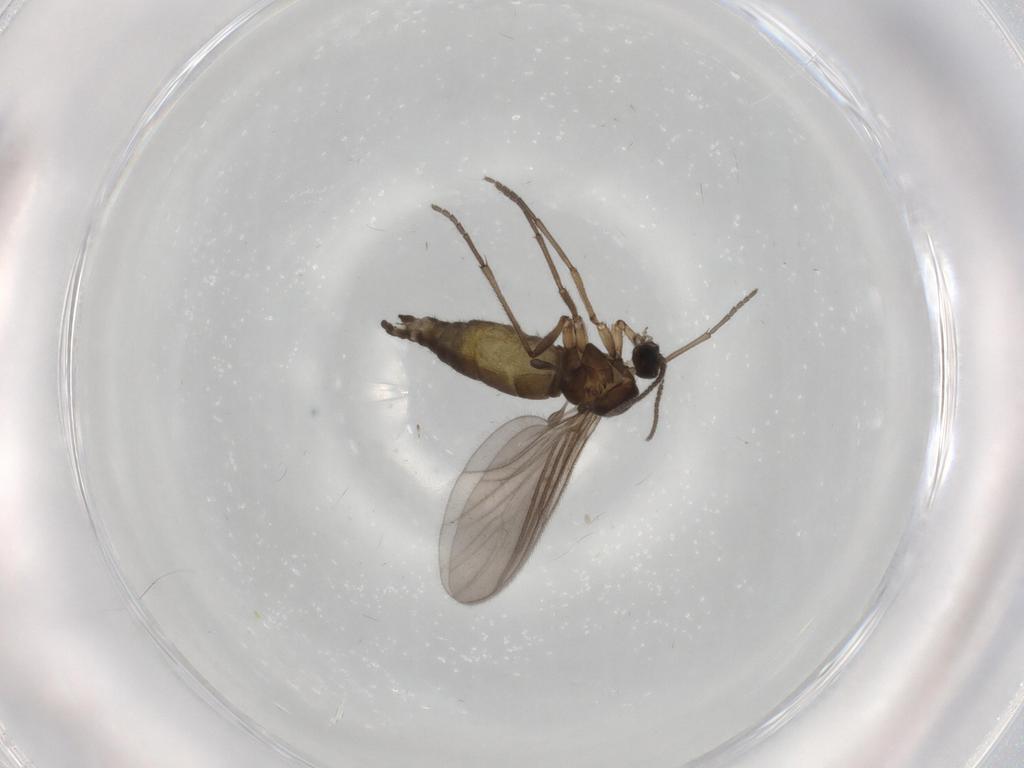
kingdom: Animalia
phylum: Arthropoda
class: Insecta
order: Diptera
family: Sciaridae
